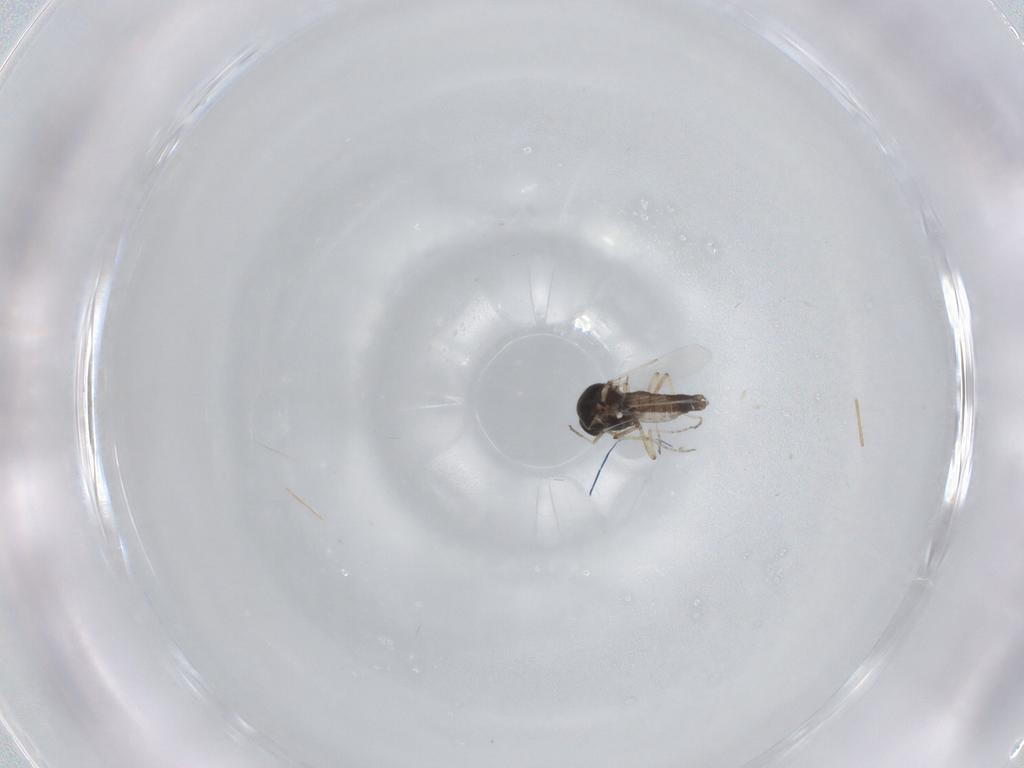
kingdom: Animalia
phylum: Arthropoda
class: Insecta
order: Diptera
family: Ceratopogonidae
